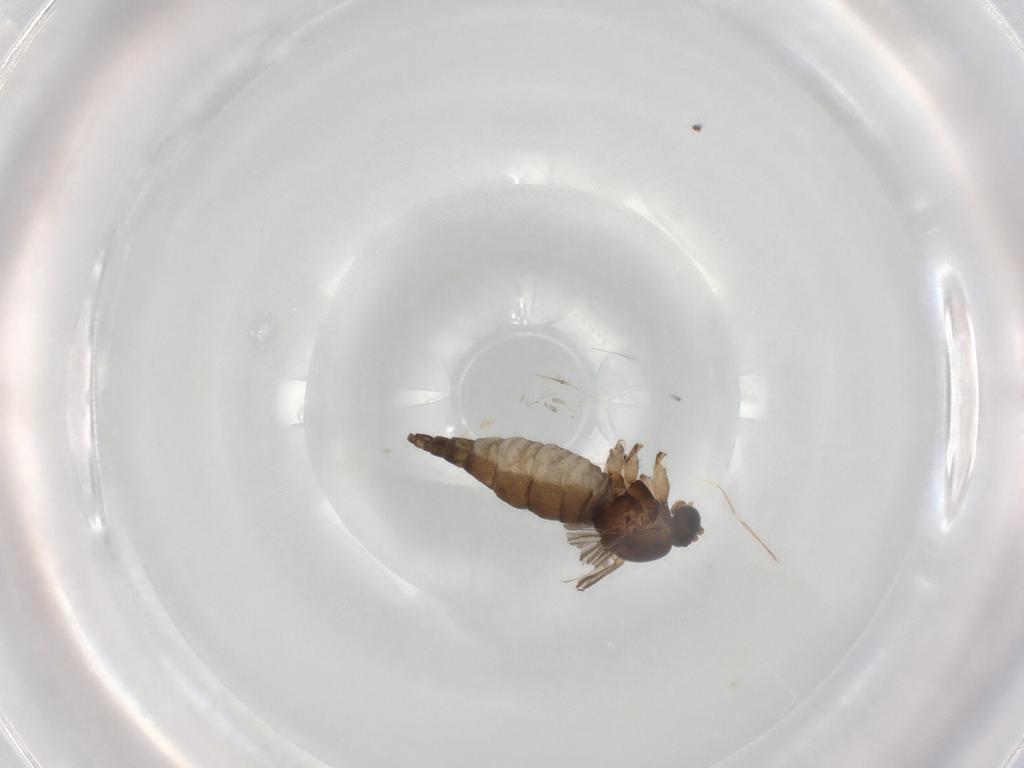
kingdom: Animalia
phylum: Arthropoda
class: Insecta
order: Diptera
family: Sciaridae
